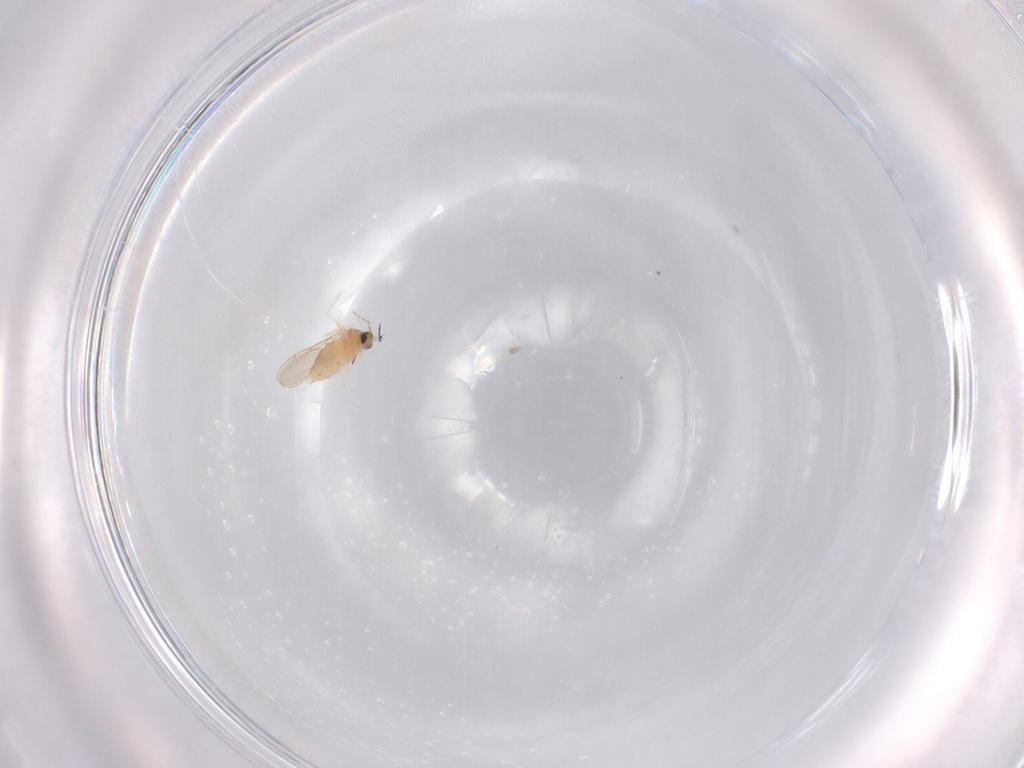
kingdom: Animalia
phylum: Arthropoda
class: Insecta
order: Diptera
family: Cecidomyiidae
